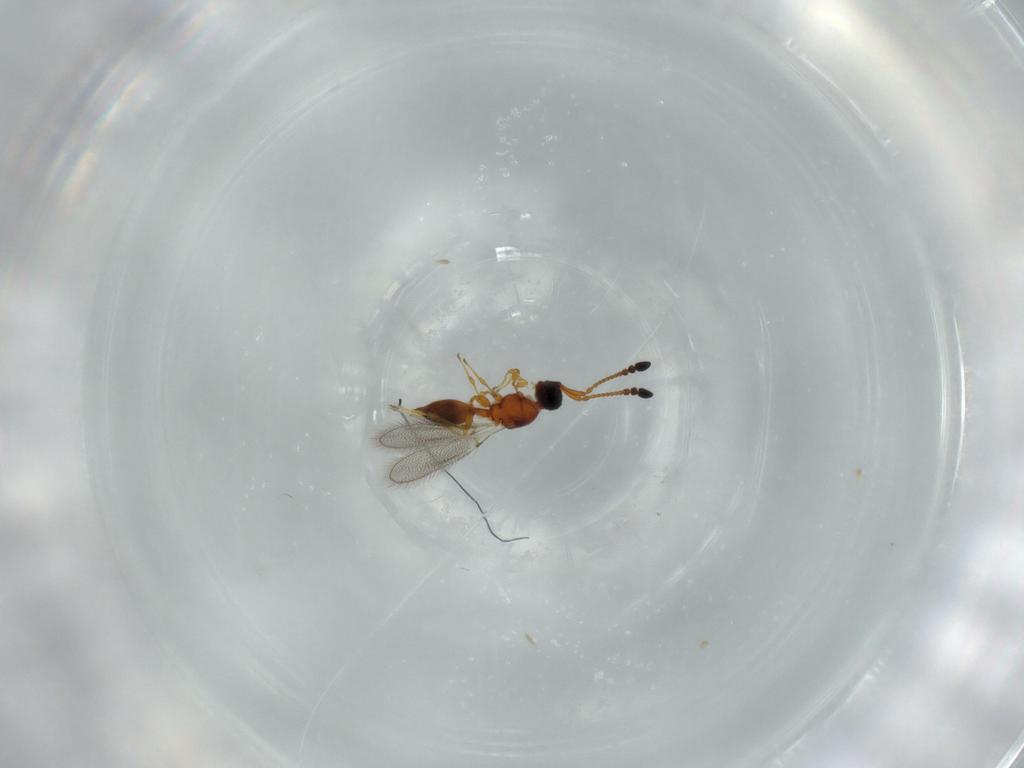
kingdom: Animalia
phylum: Arthropoda
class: Insecta
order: Hymenoptera
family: Diapriidae
